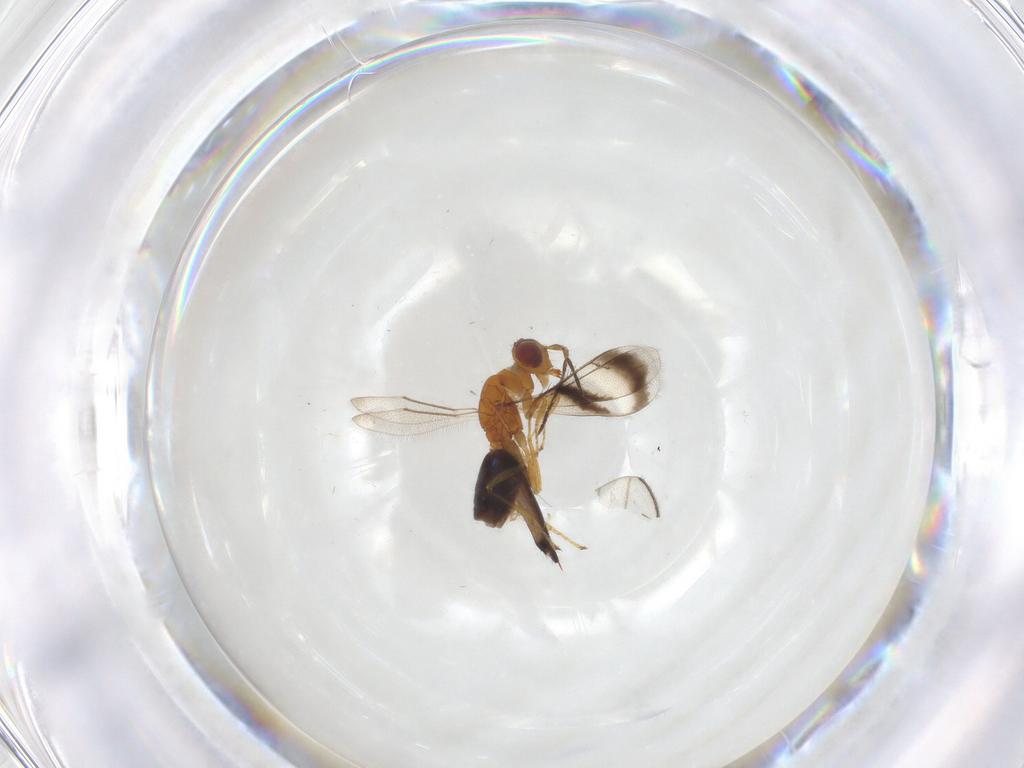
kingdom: Animalia
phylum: Arthropoda
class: Insecta
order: Hymenoptera
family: Eulophidae
